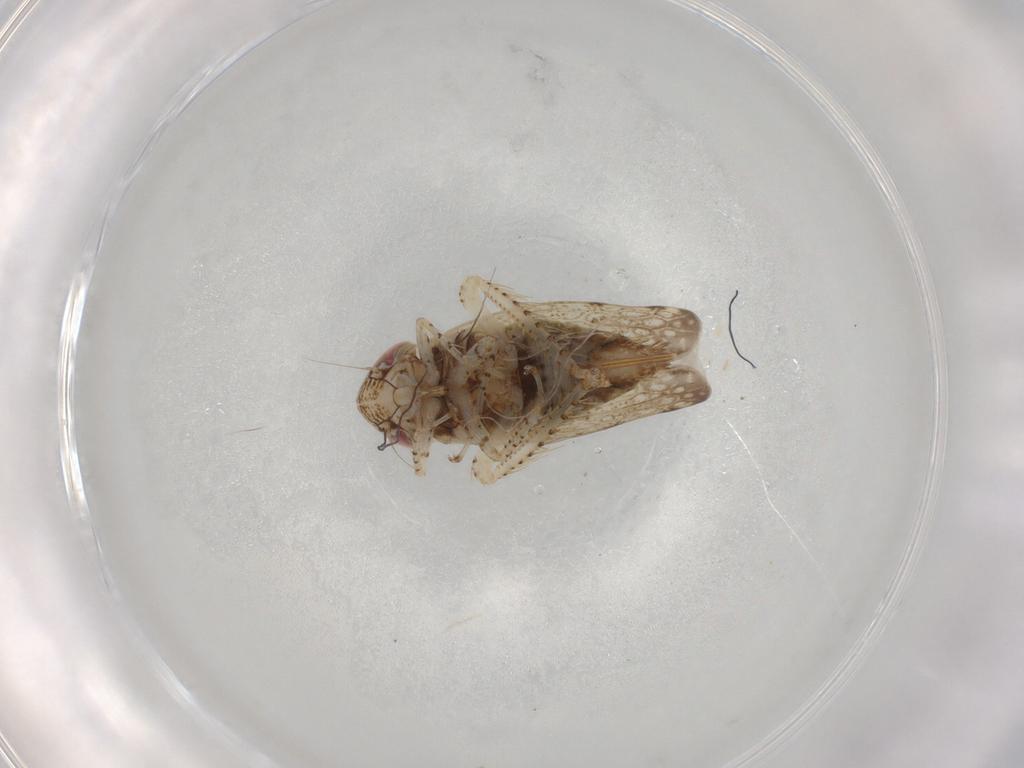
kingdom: Animalia
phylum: Arthropoda
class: Insecta
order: Hemiptera
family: Cicadellidae
